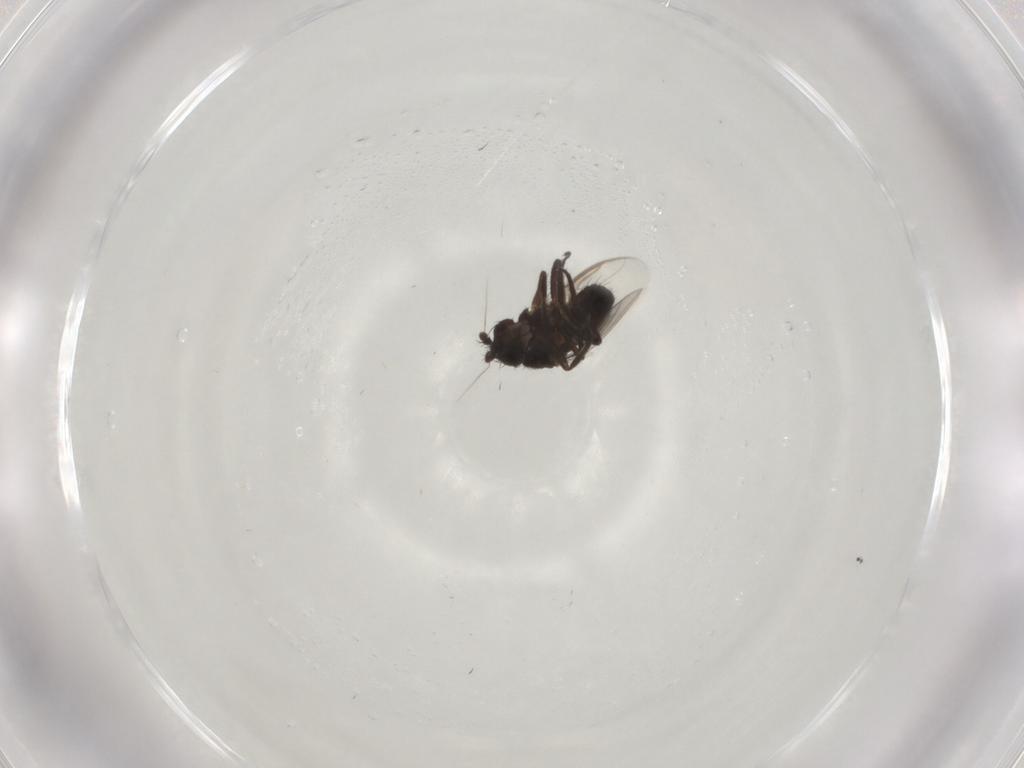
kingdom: Animalia
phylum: Arthropoda
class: Insecta
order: Diptera
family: Sphaeroceridae
